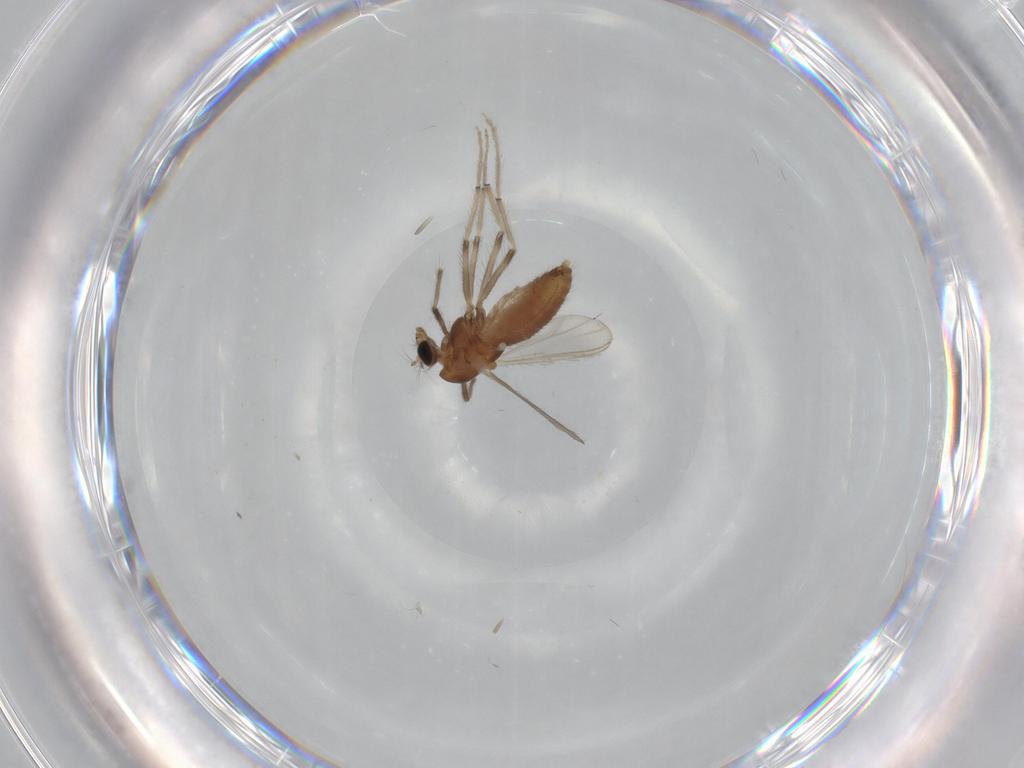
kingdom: Animalia
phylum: Arthropoda
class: Insecta
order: Diptera
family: Chironomidae
